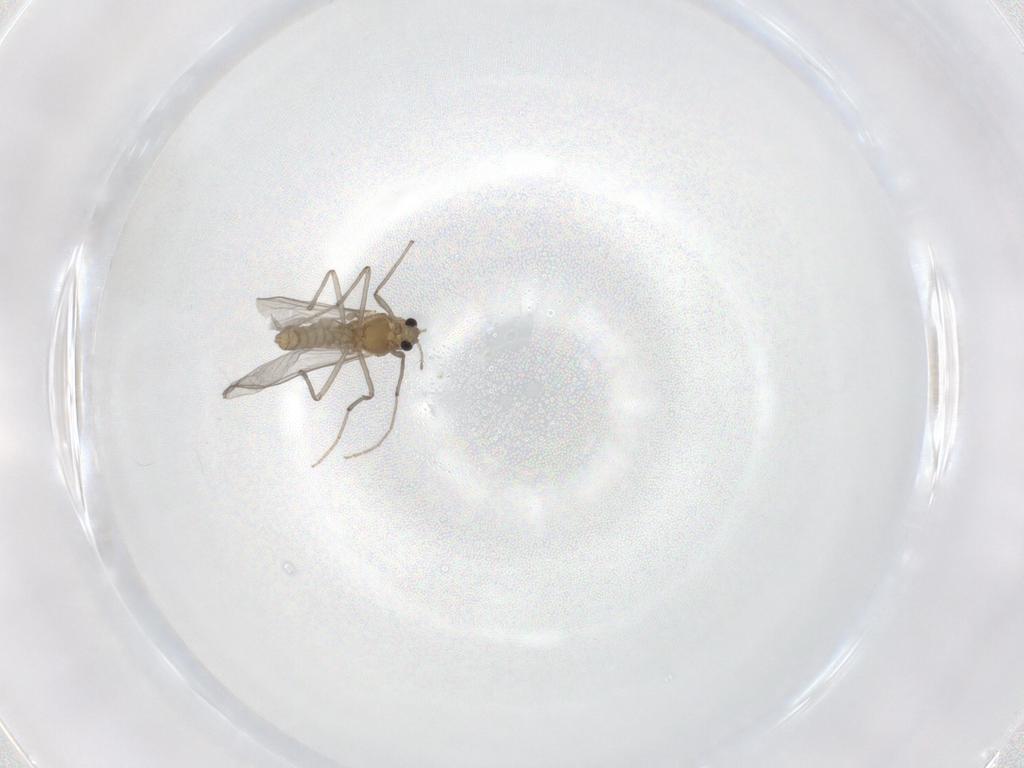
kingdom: Animalia
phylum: Arthropoda
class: Insecta
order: Diptera
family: Chironomidae
